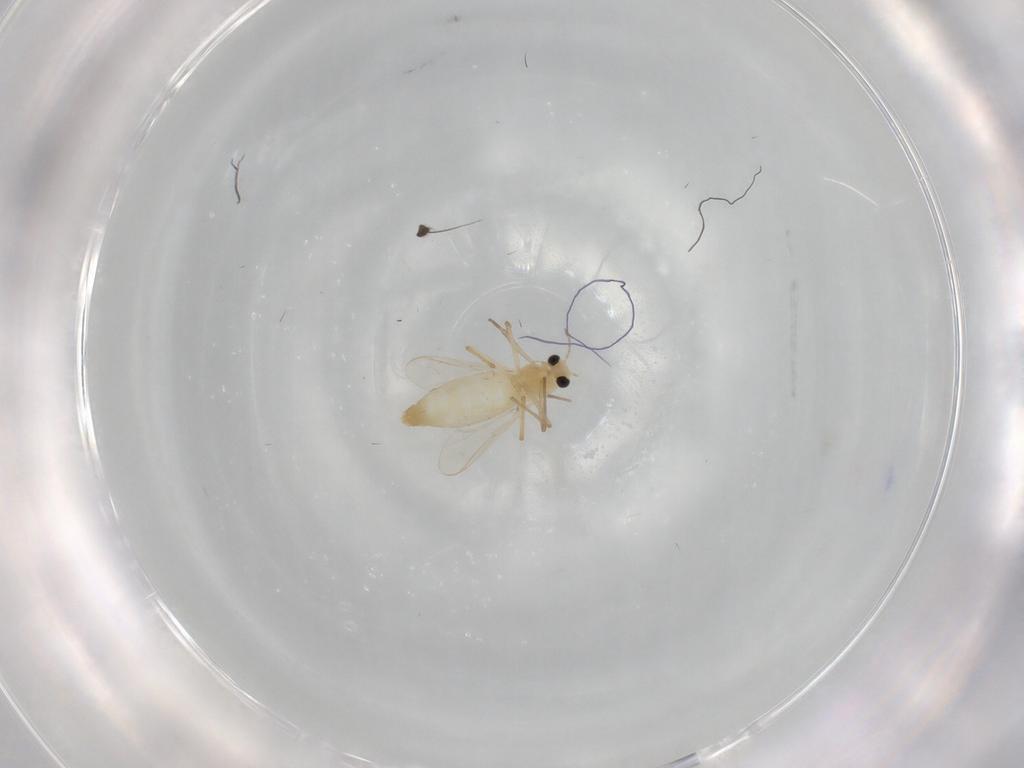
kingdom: Animalia
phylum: Arthropoda
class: Insecta
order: Diptera
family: Chironomidae
